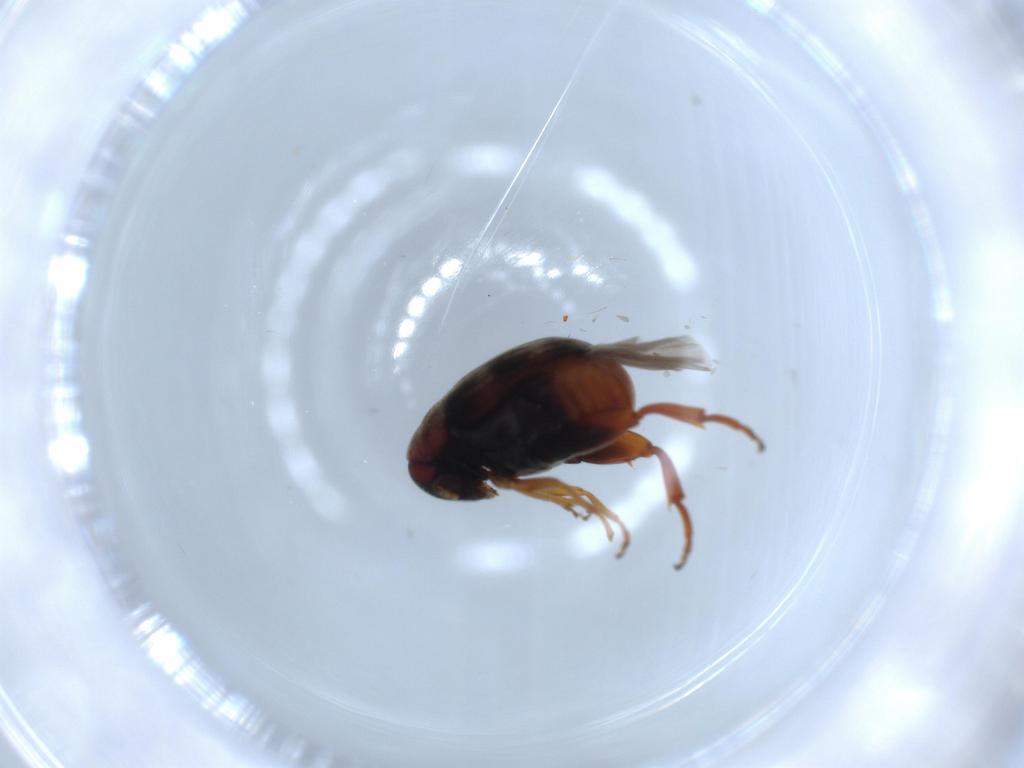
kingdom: Animalia
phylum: Arthropoda
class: Insecta
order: Coleoptera
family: Chrysomelidae
